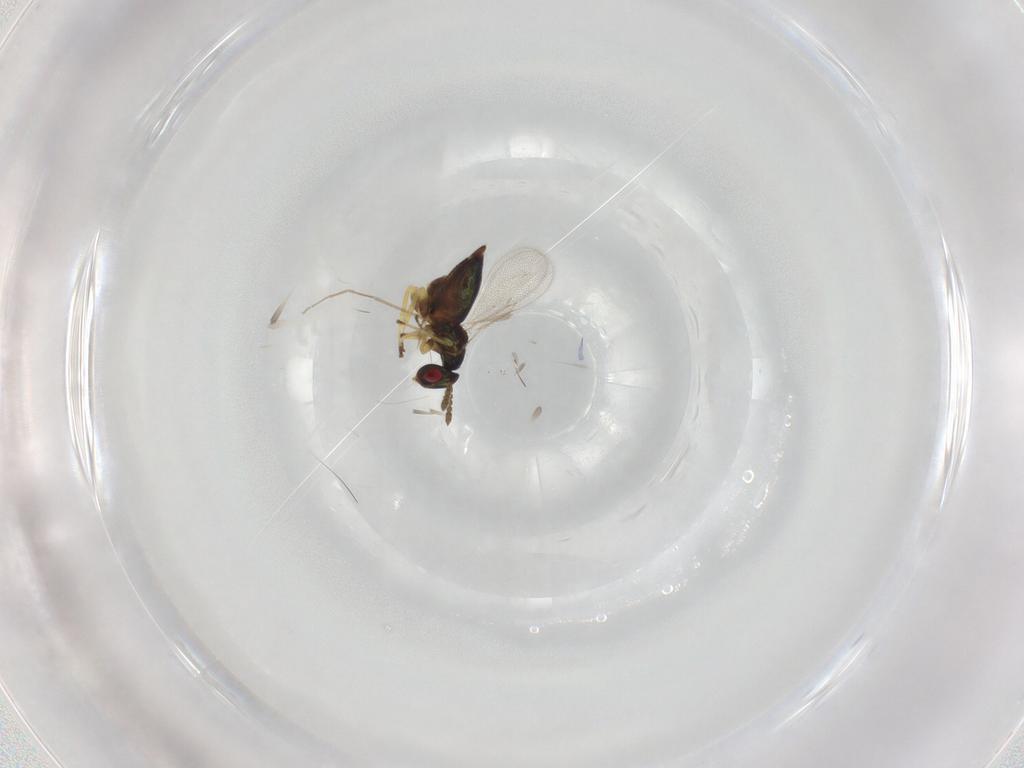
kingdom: Animalia
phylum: Arthropoda
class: Insecta
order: Hymenoptera
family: Eulophidae
